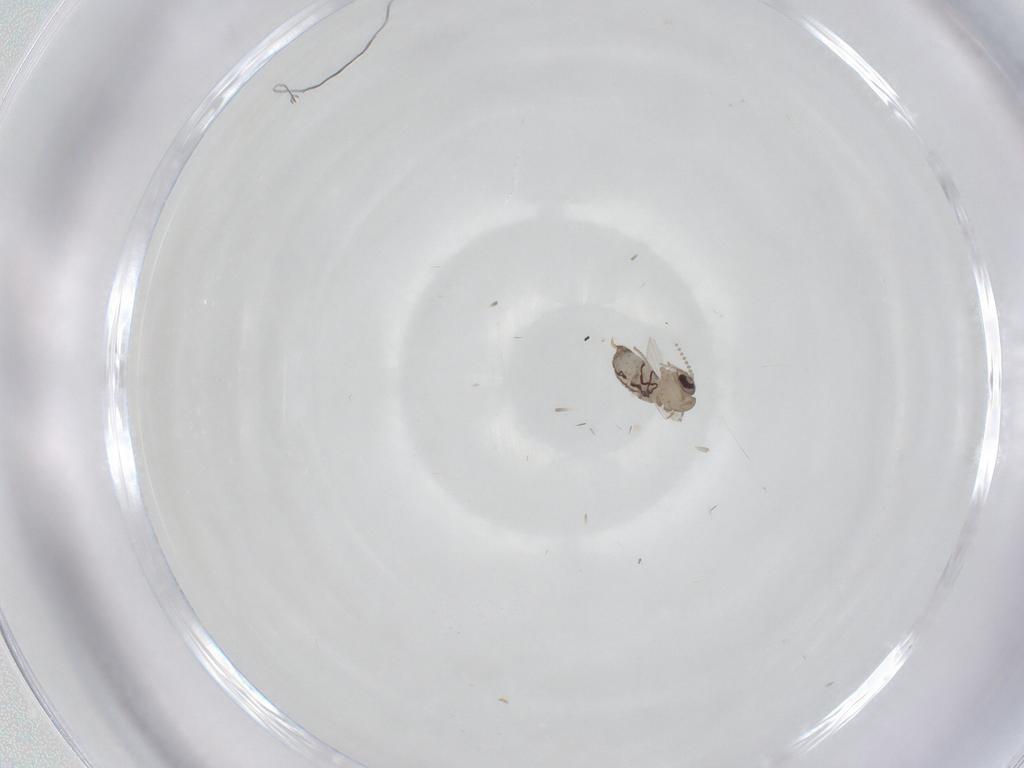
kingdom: Animalia
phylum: Arthropoda
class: Insecta
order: Diptera
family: Psychodidae
